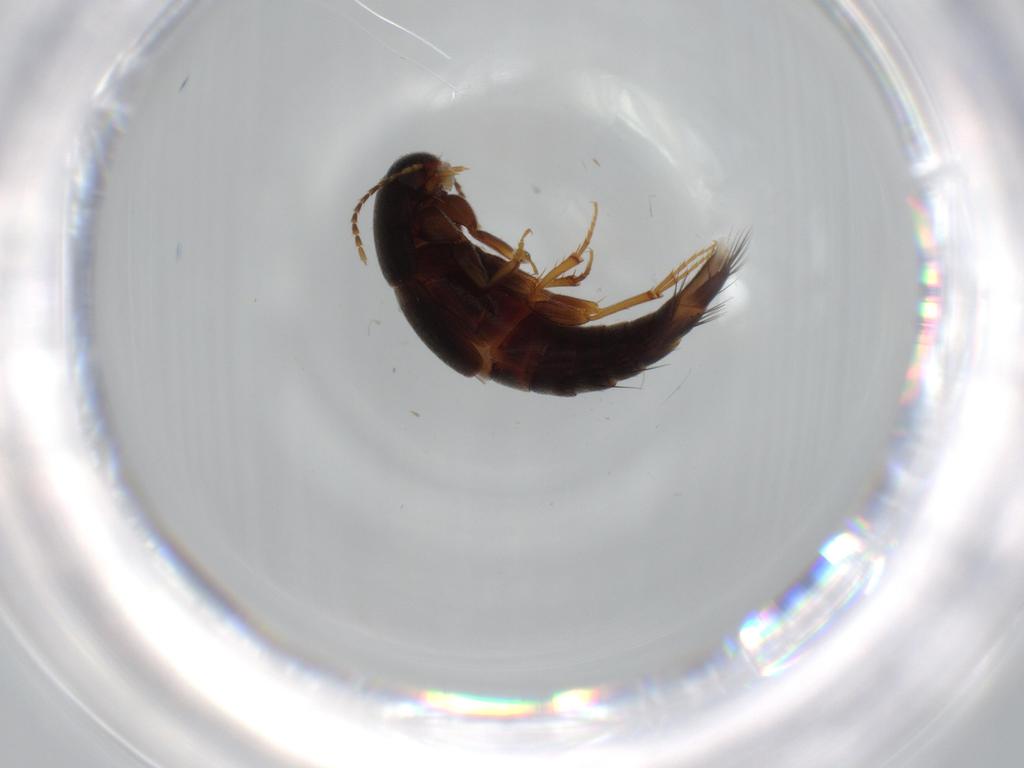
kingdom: Animalia
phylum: Arthropoda
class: Insecta
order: Coleoptera
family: Staphylinidae
